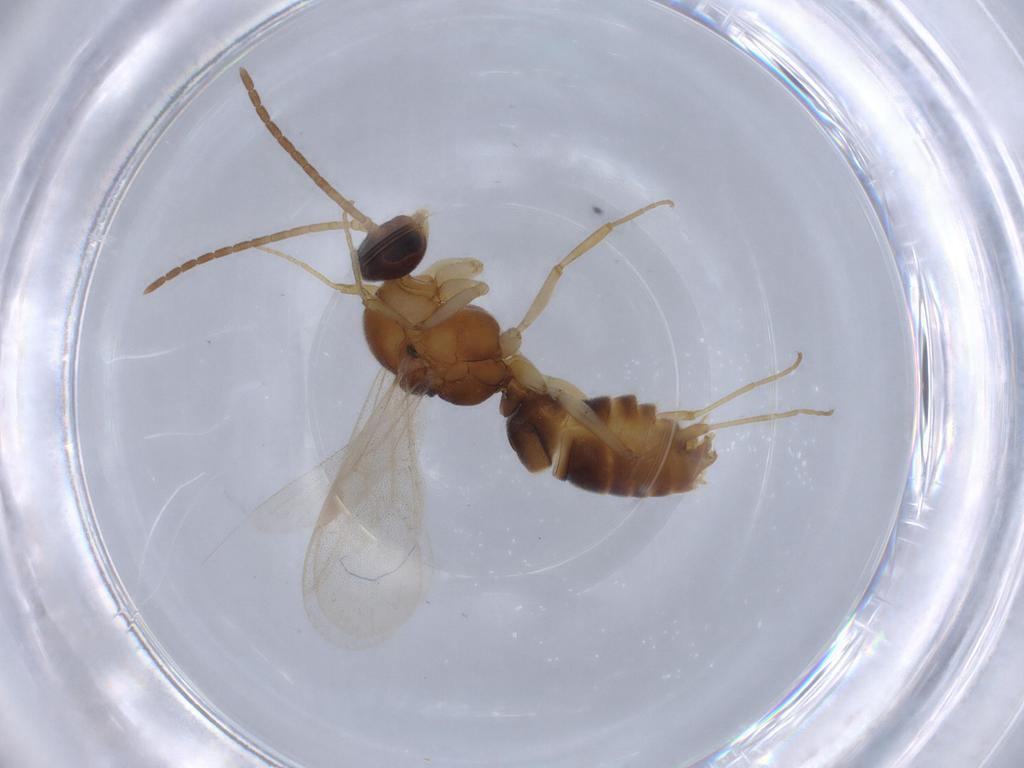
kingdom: Animalia
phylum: Arthropoda
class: Insecta
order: Hymenoptera
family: Formicidae
